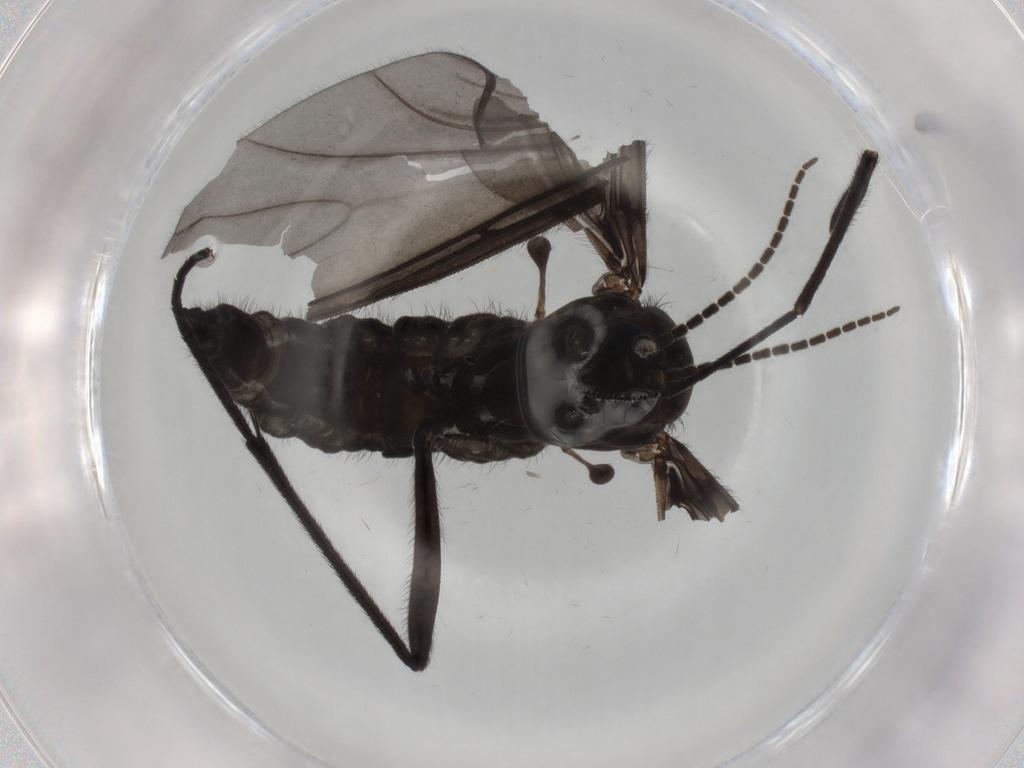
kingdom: Animalia
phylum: Arthropoda
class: Insecta
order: Diptera
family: Sciaridae
